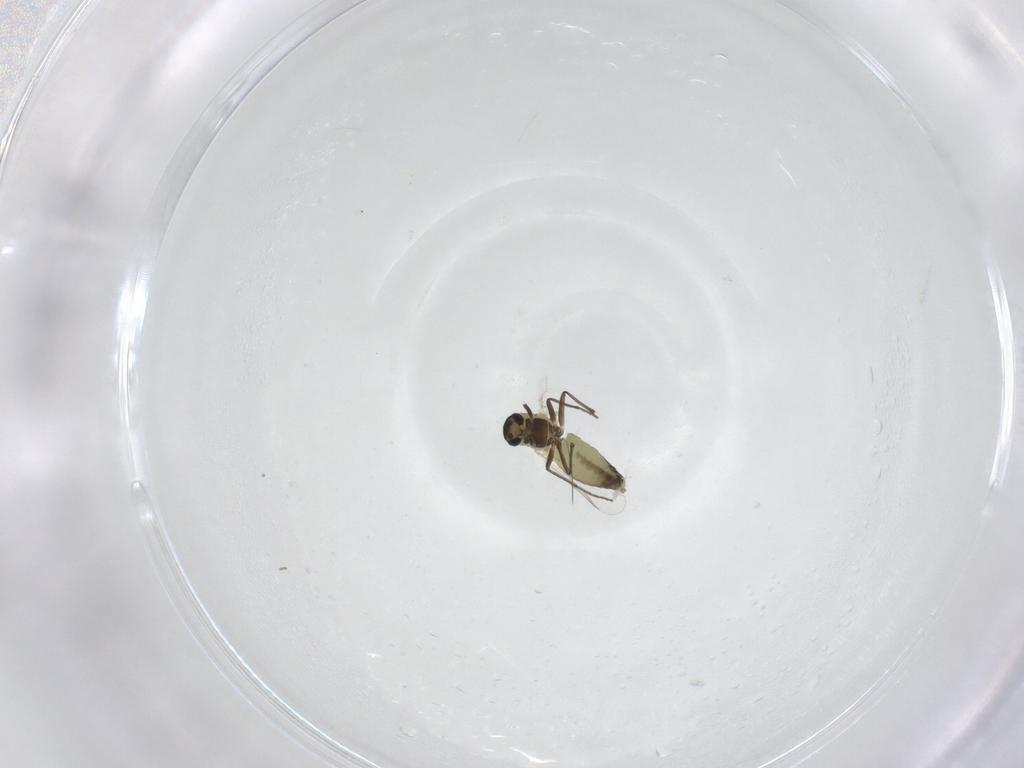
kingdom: Animalia
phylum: Arthropoda
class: Insecta
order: Diptera
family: Chironomidae
